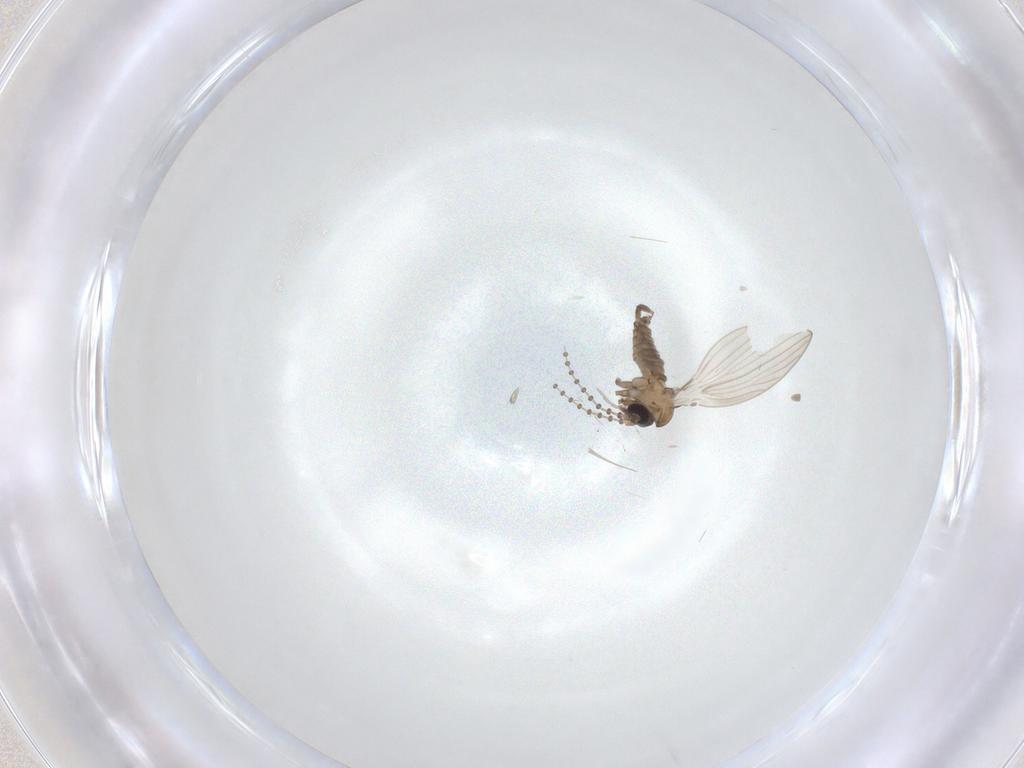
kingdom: Animalia
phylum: Arthropoda
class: Insecta
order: Diptera
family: Psychodidae
